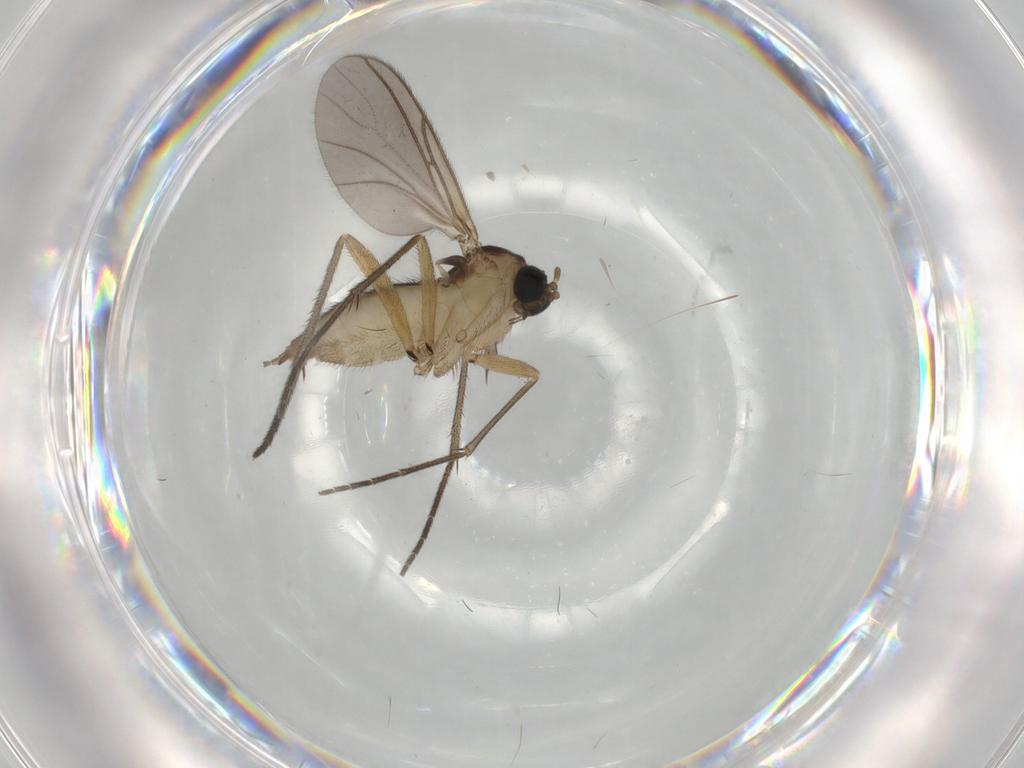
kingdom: Animalia
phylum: Arthropoda
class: Insecta
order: Diptera
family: Sciaridae
